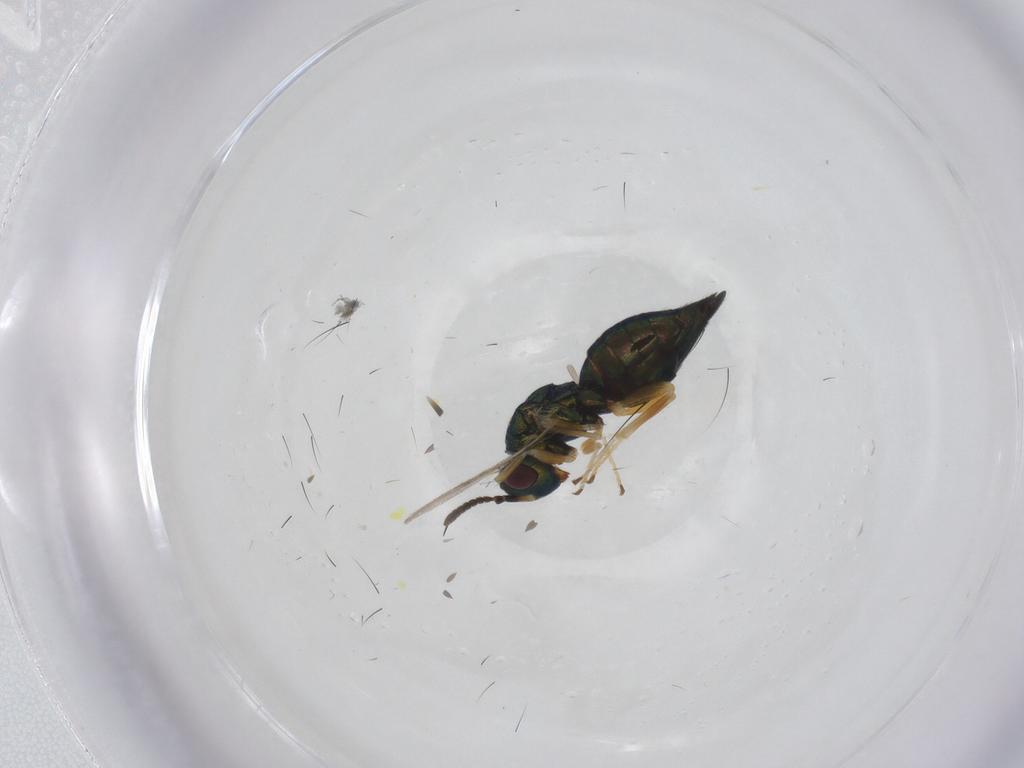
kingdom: Animalia
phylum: Arthropoda
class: Insecta
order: Hymenoptera
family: Pteromalidae
